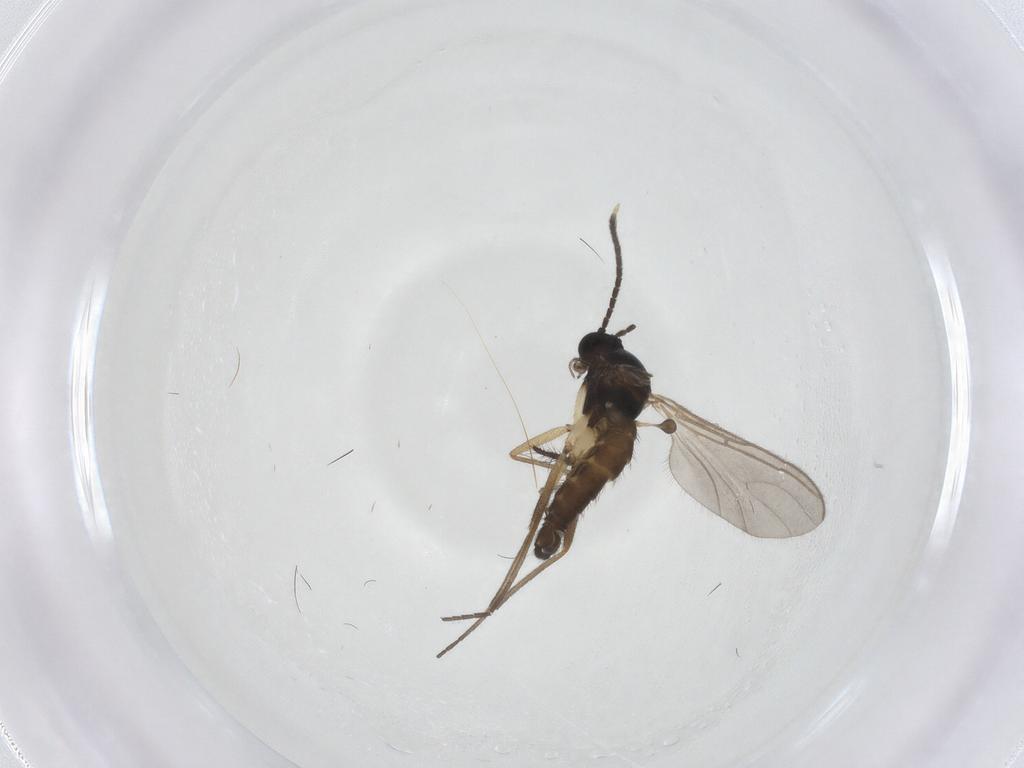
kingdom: Animalia
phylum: Arthropoda
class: Insecta
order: Diptera
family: Sciaridae
